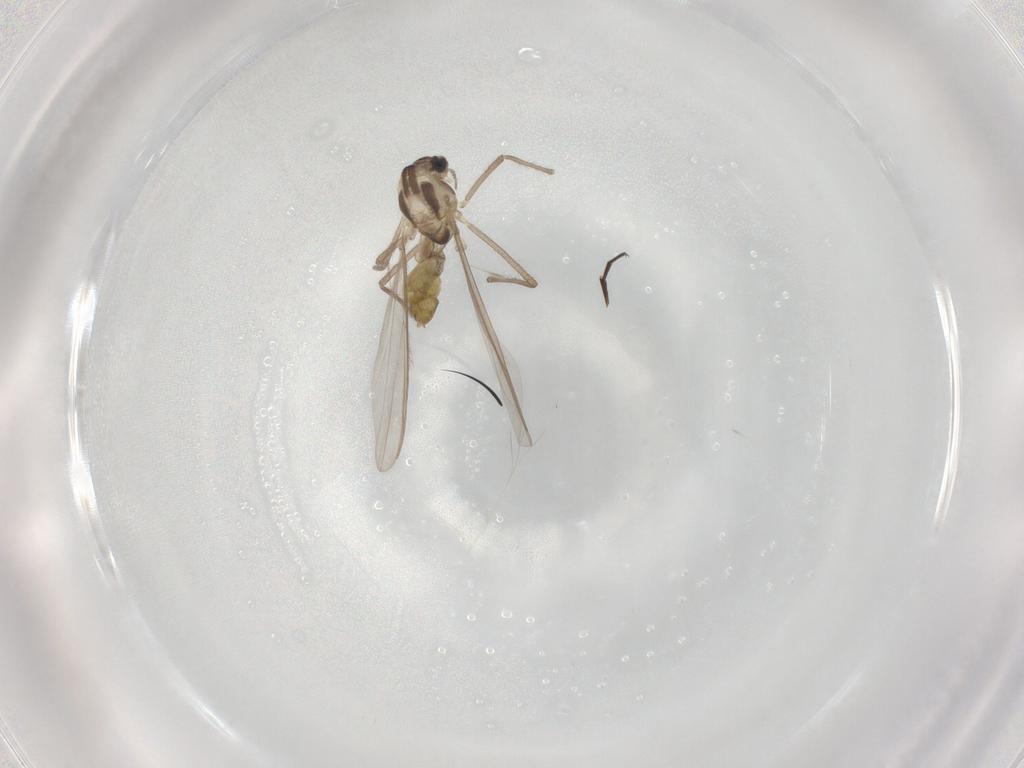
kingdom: Animalia
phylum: Arthropoda
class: Insecta
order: Diptera
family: Chironomidae
